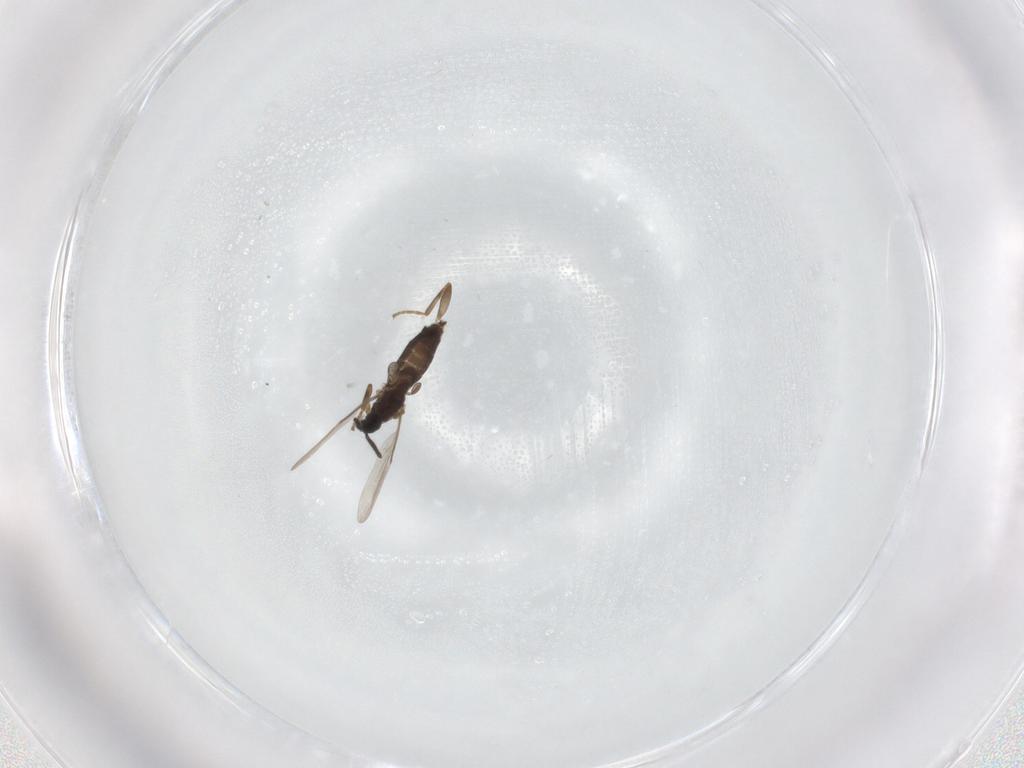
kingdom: Animalia
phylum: Arthropoda
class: Insecta
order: Diptera
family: Scatopsidae
